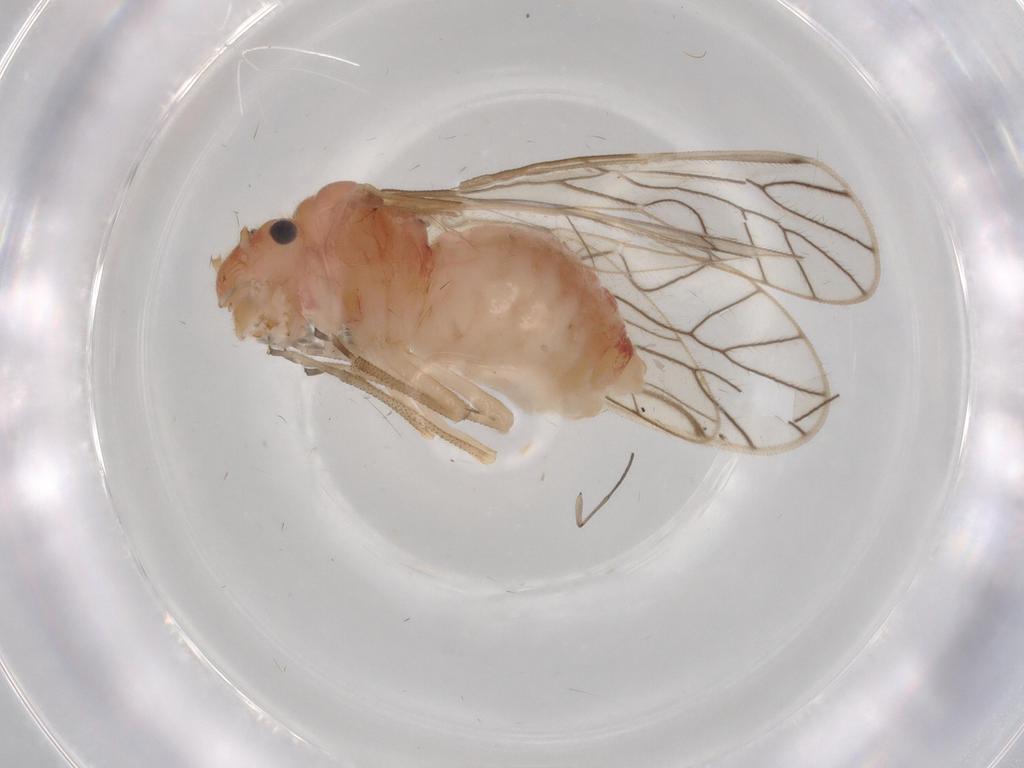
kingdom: Animalia
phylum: Arthropoda
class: Insecta
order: Psocodea
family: Amphipsocidae
